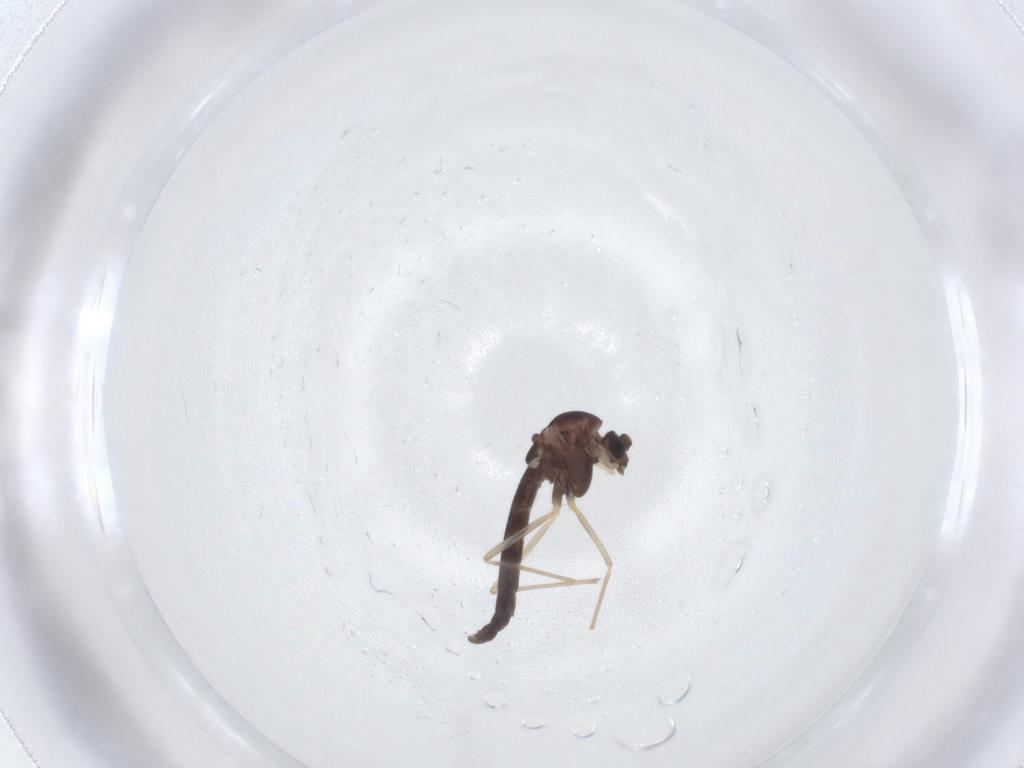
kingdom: Animalia
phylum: Arthropoda
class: Insecta
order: Diptera
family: Chironomidae
